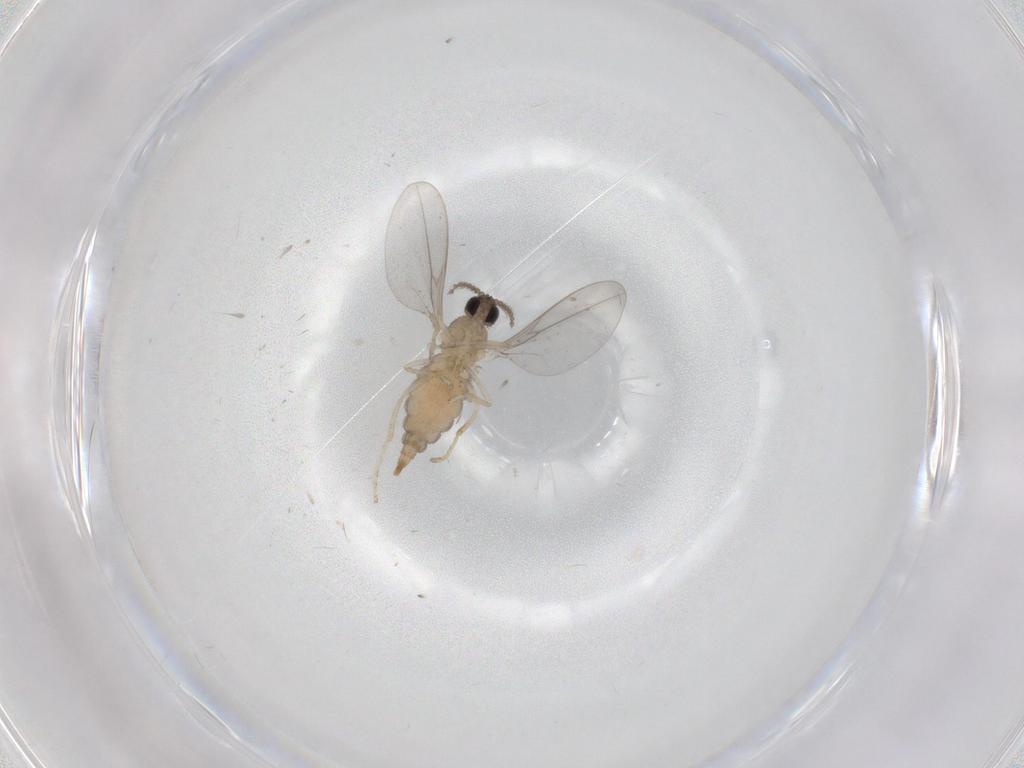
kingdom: Animalia
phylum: Arthropoda
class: Insecta
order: Diptera
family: Cecidomyiidae
